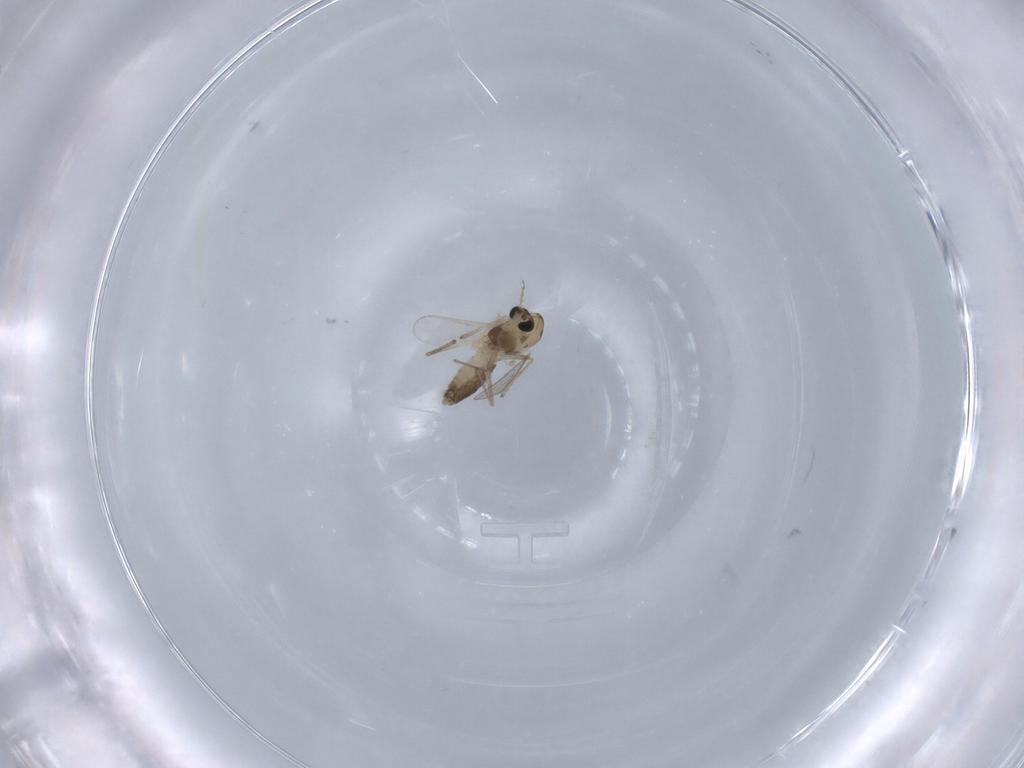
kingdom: Animalia
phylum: Arthropoda
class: Insecta
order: Diptera
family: Chironomidae
